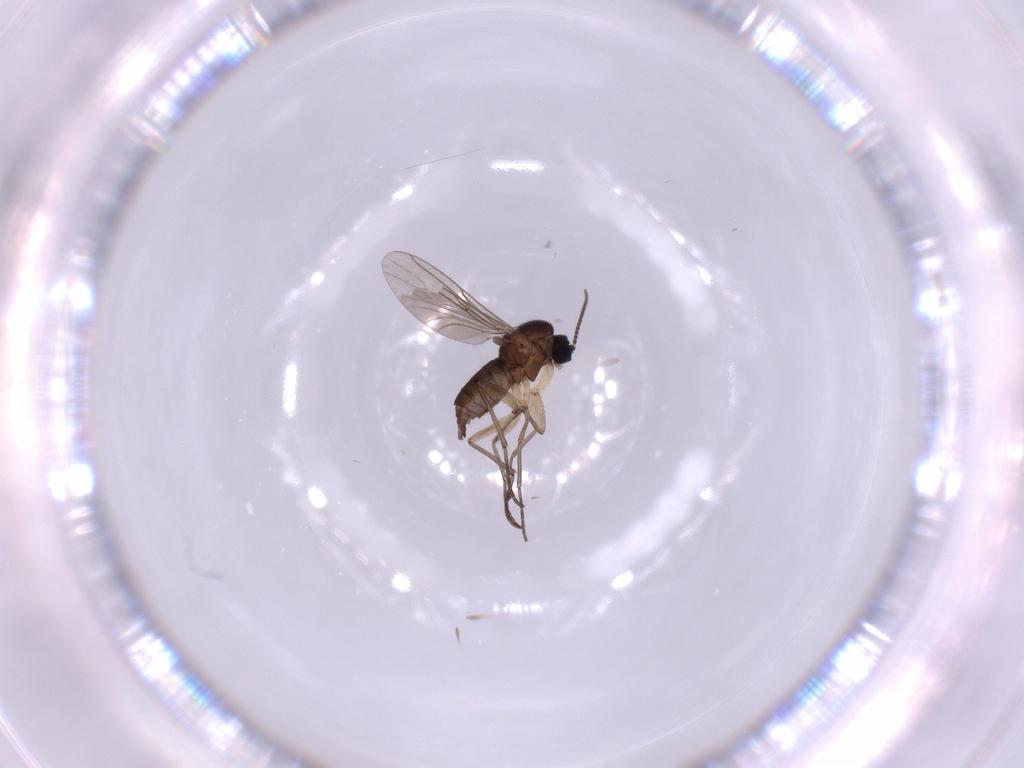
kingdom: Animalia
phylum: Arthropoda
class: Insecta
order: Diptera
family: Sciaridae
